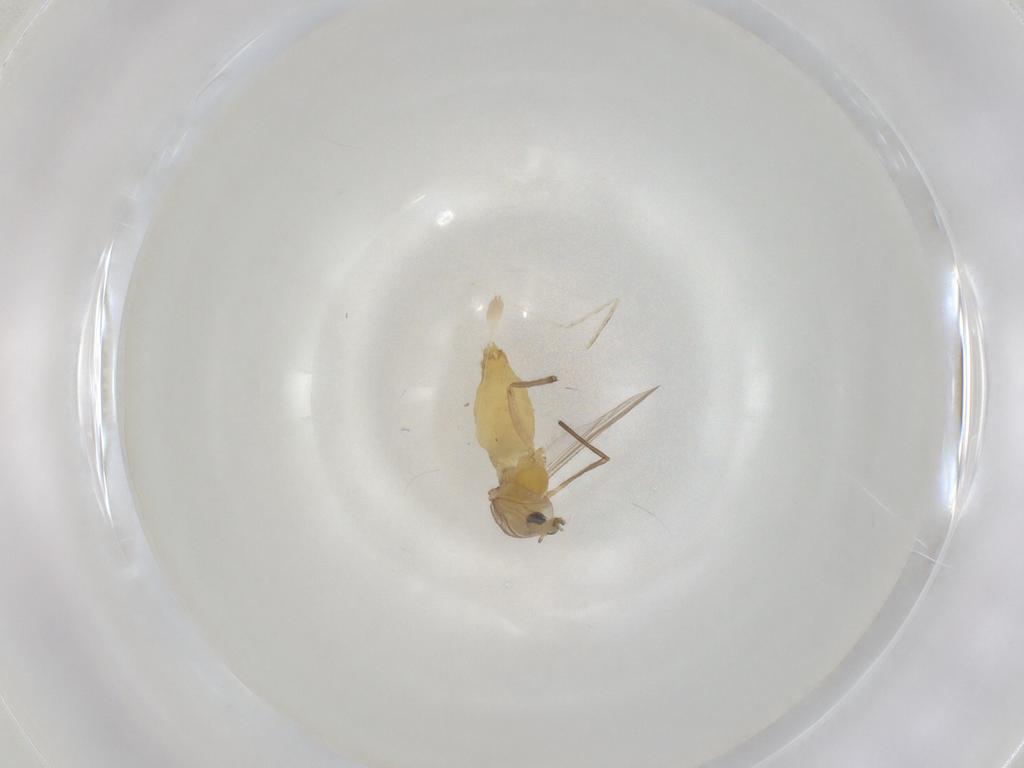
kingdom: Animalia
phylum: Arthropoda
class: Insecta
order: Diptera
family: Chironomidae
